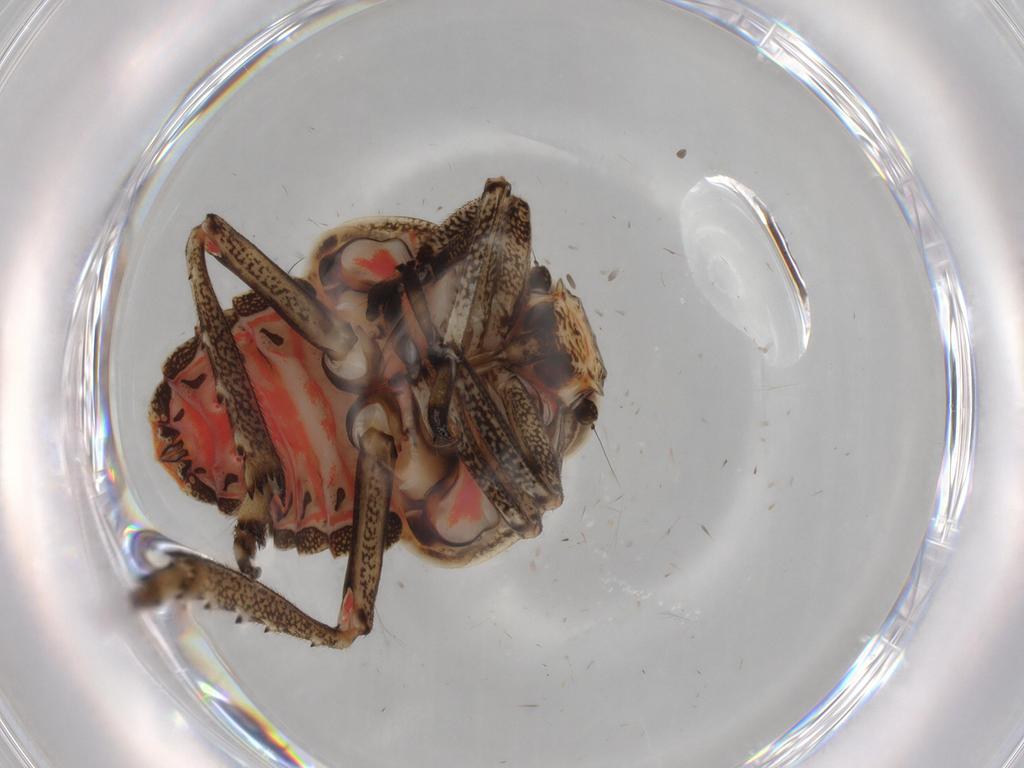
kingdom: Animalia
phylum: Arthropoda
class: Insecta
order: Hemiptera
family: Issidae
